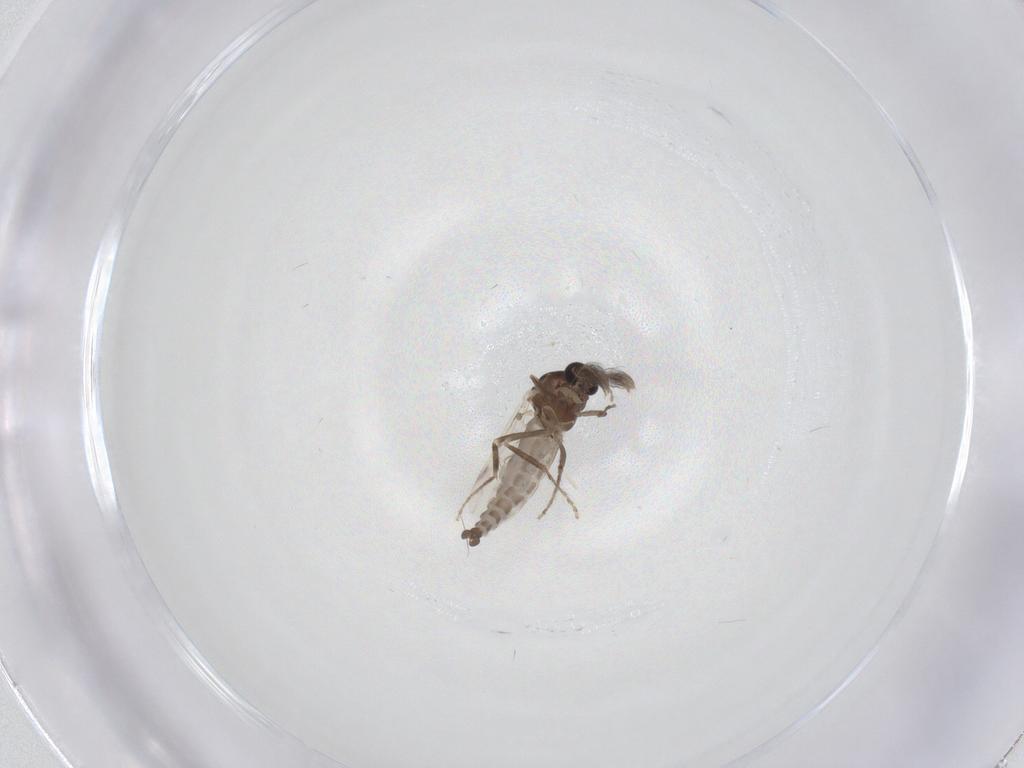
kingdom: Animalia
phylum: Arthropoda
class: Insecta
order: Diptera
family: Ceratopogonidae
